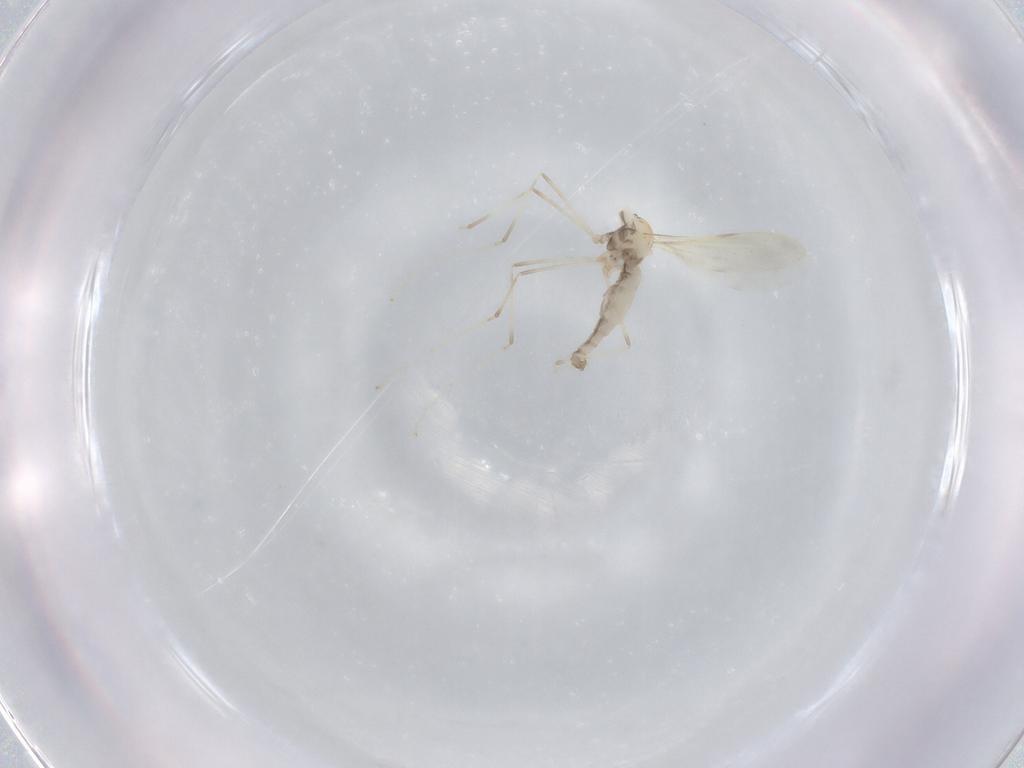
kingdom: Animalia
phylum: Arthropoda
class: Insecta
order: Diptera
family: Cecidomyiidae
